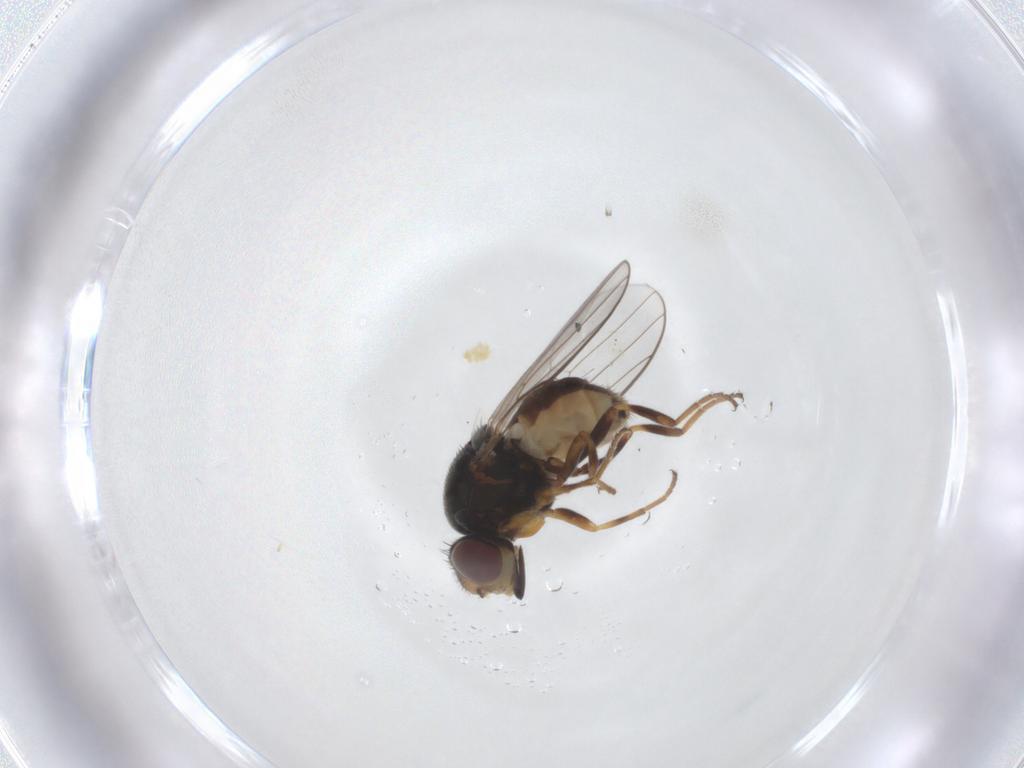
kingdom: Animalia
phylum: Arthropoda
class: Insecta
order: Diptera
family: Chloropidae
